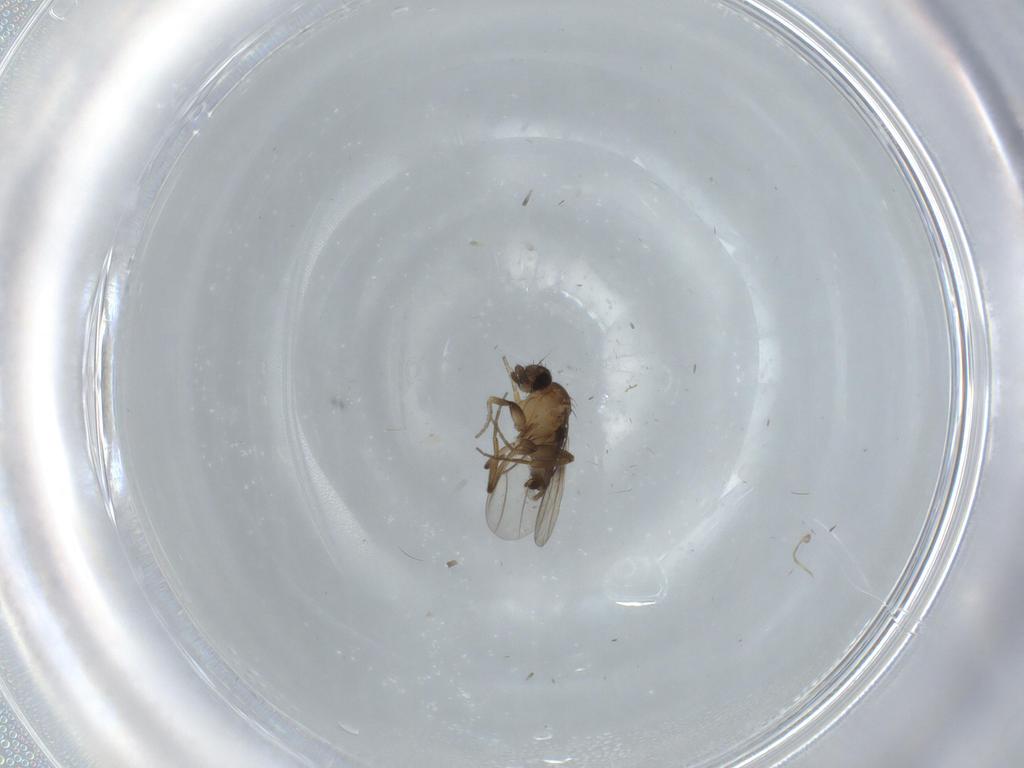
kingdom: Animalia
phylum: Arthropoda
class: Insecta
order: Diptera
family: Phoridae
